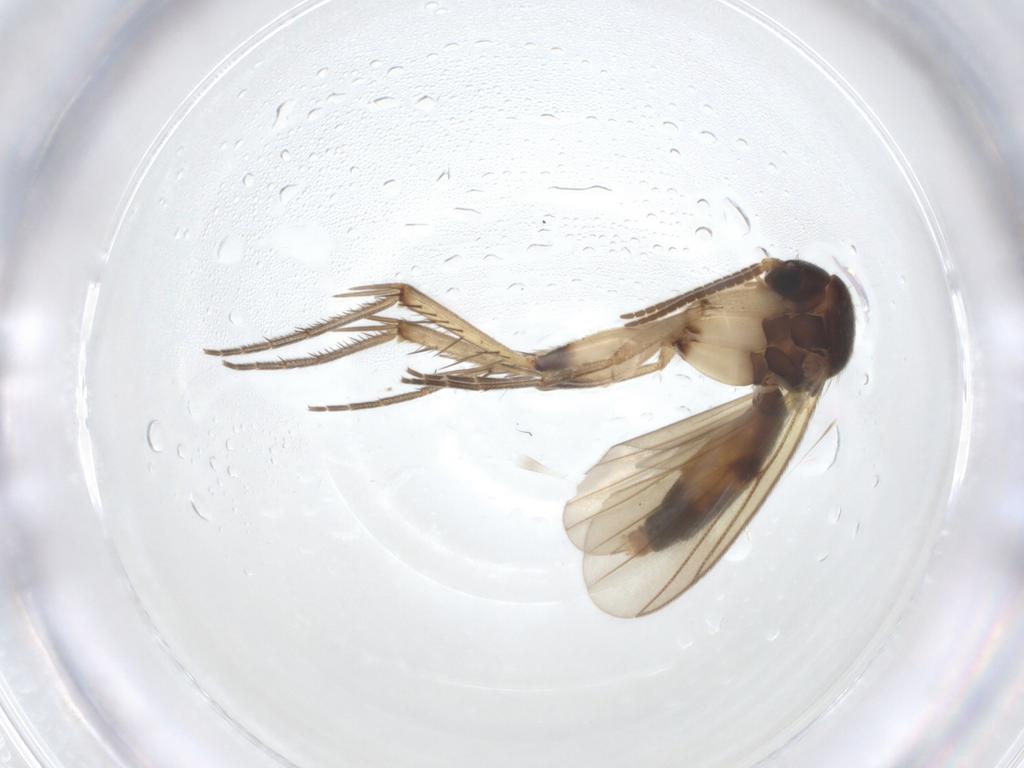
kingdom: Animalia
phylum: Arthropoda
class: Insecta
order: Diptera
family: Mycetophilidae
